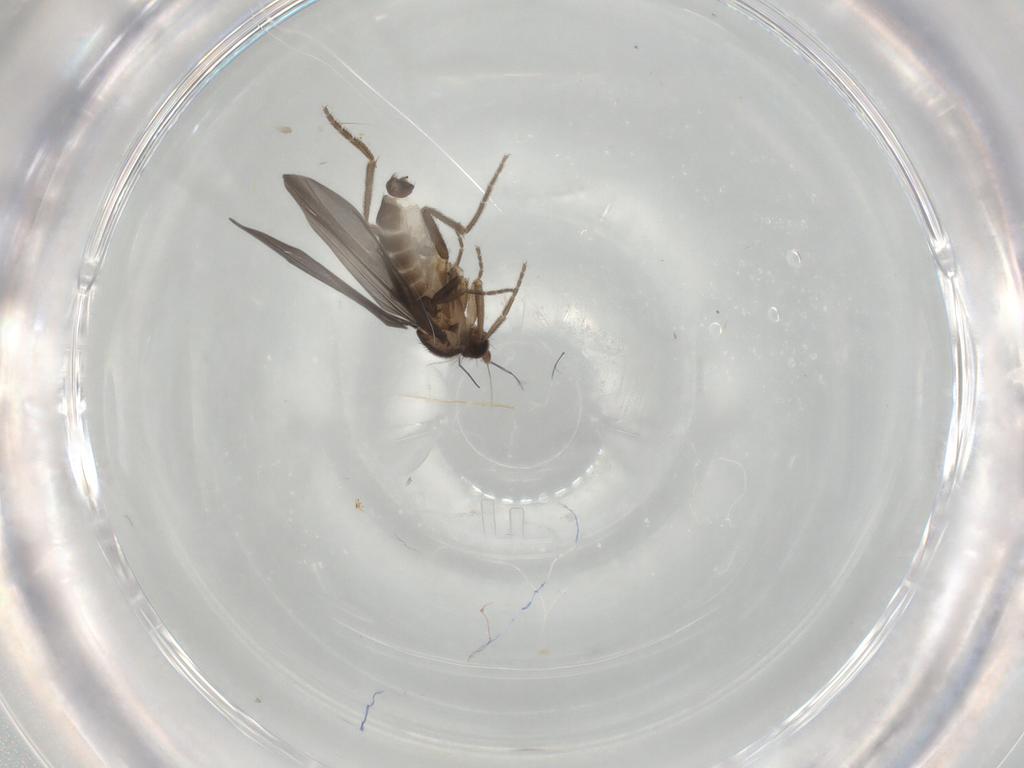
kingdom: Animalia
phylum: Arthropoda
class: Insecta
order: Diptera
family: Phoridae
